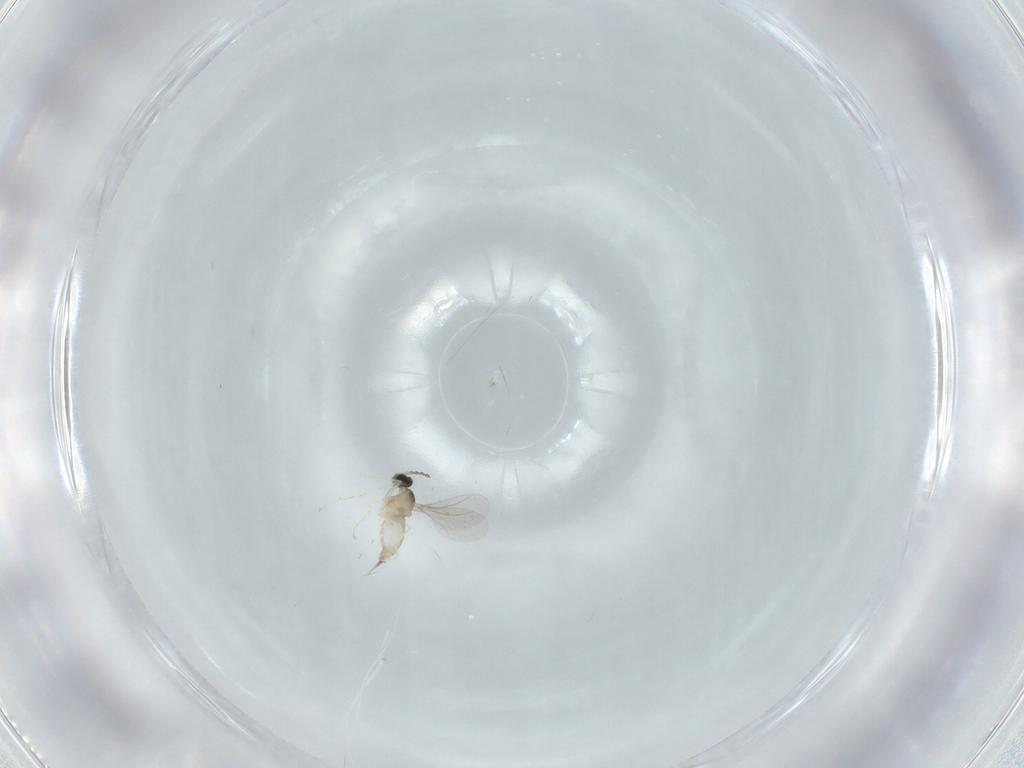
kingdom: Animalia
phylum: Arthropoda
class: Insecta
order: Diptera
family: Cecidomyiidae
